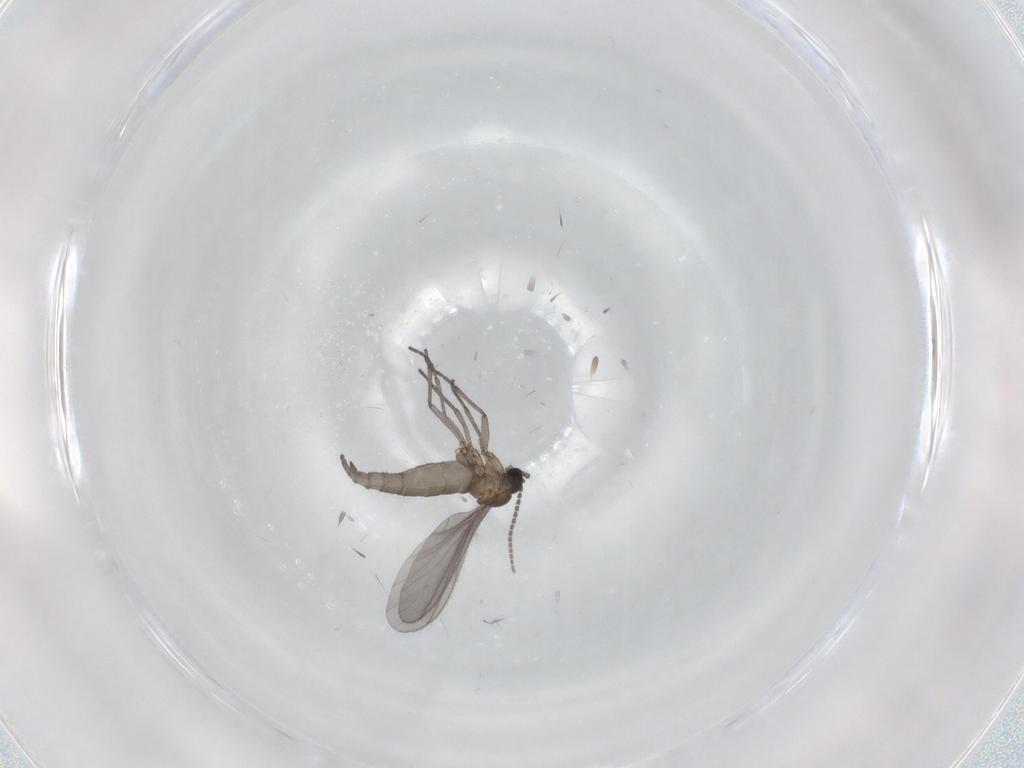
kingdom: Animalia
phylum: Arthropoda
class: Insecta
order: Diptera
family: Sciaridae
